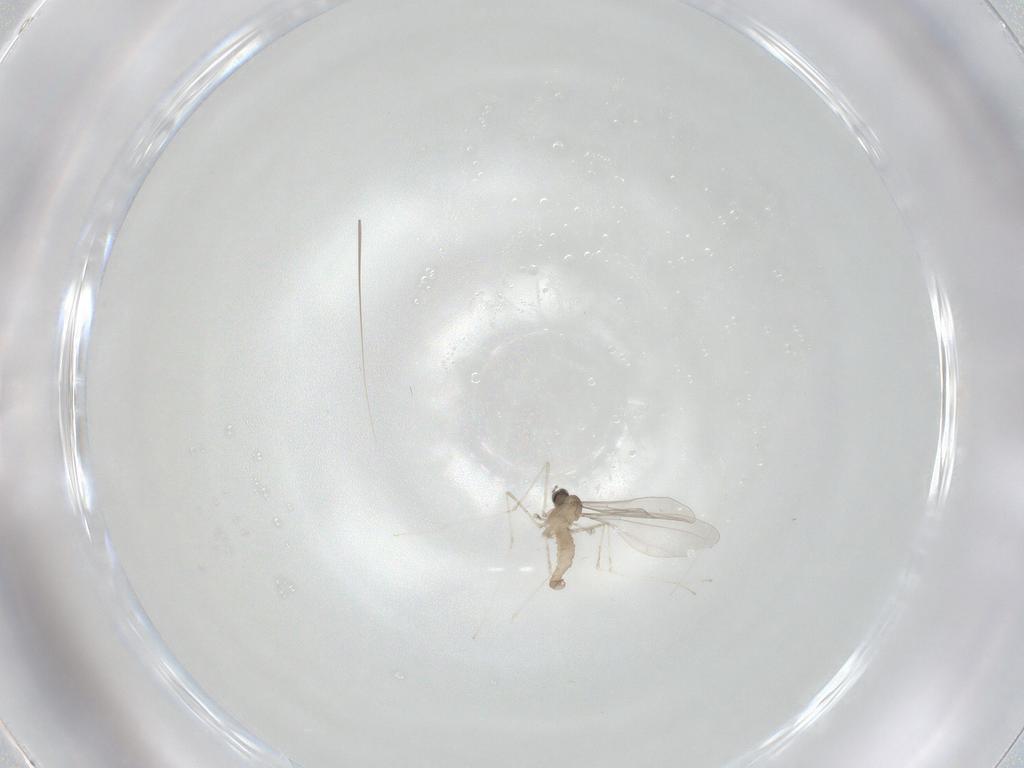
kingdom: Animalia
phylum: Arthropoda
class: Insecta
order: Diptera
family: Cecidomyiidae
